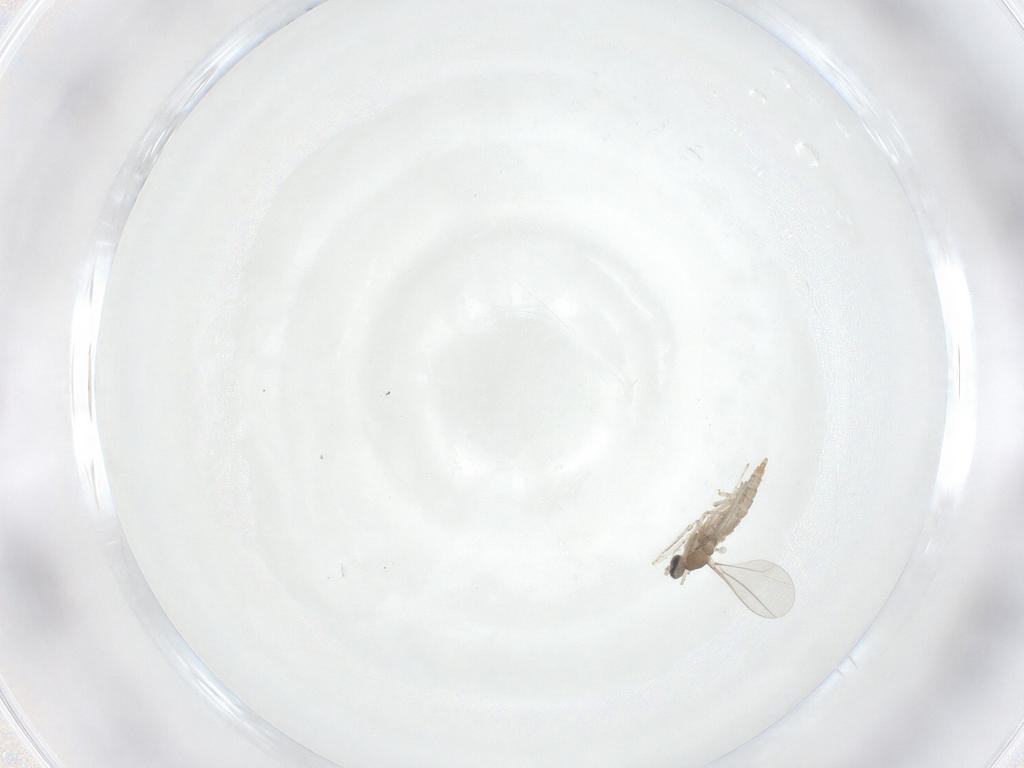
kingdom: Animalia
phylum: Arthropoda
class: Insecta
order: Diptera
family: Cecidomyiidae
